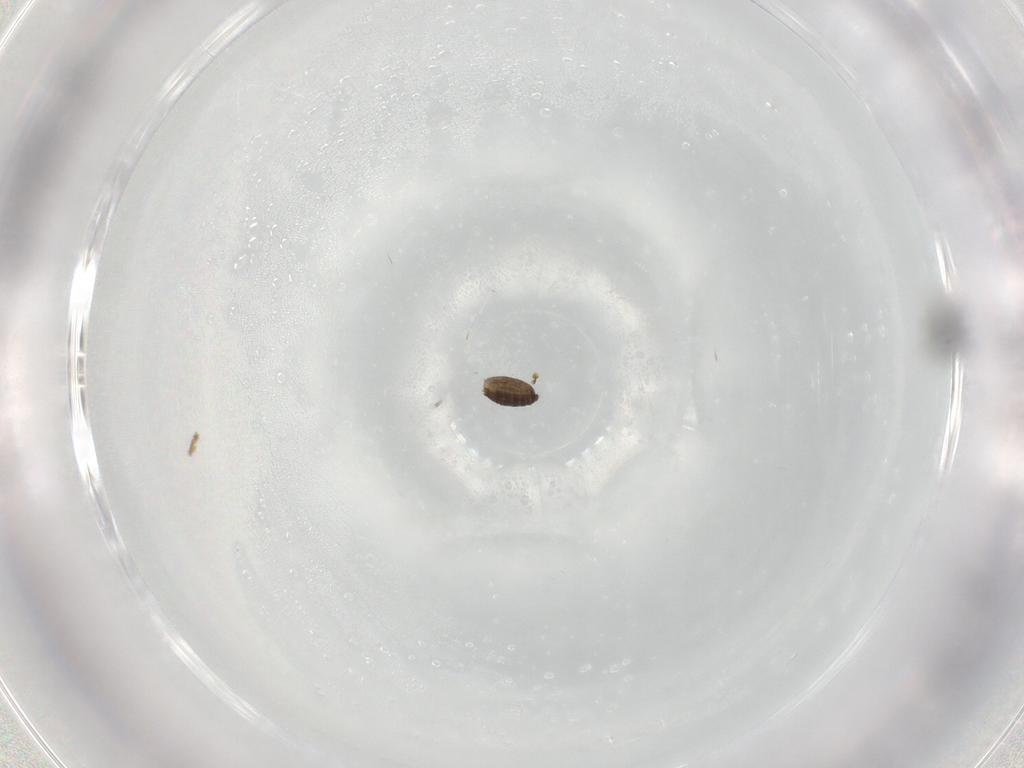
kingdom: Animalia
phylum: Arthropoda
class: Insecta
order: Diptera
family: Ceratopogonidae
